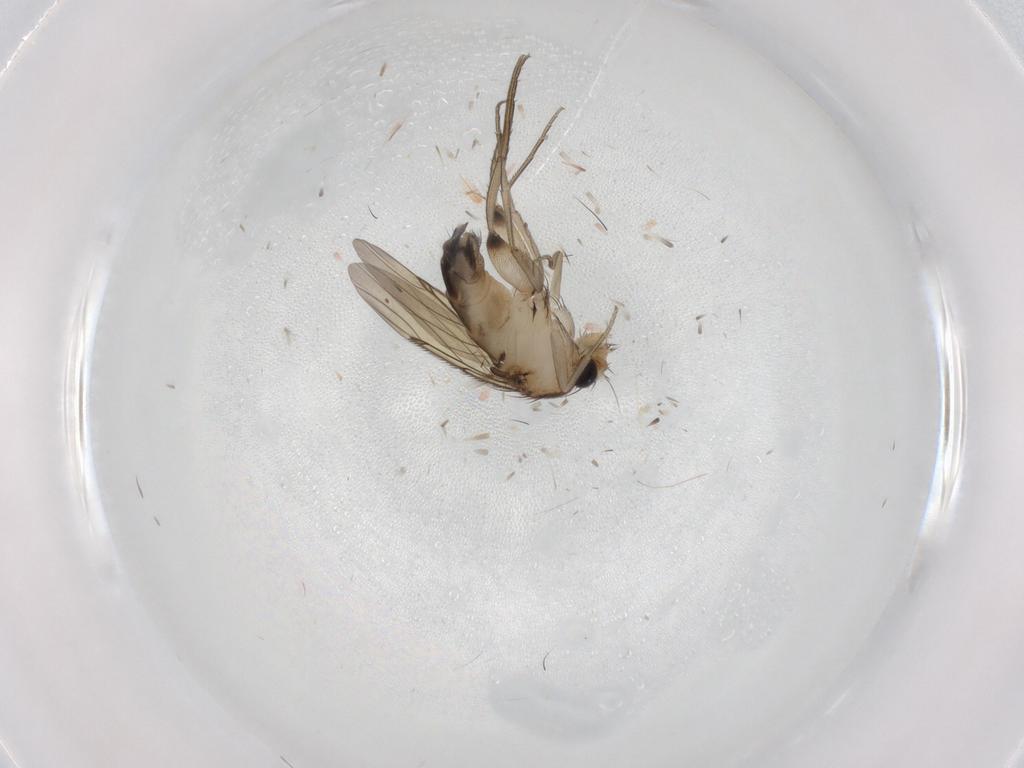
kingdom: Animalia
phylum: Arthropoda
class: Insecta
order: Diptera
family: Phoridae
